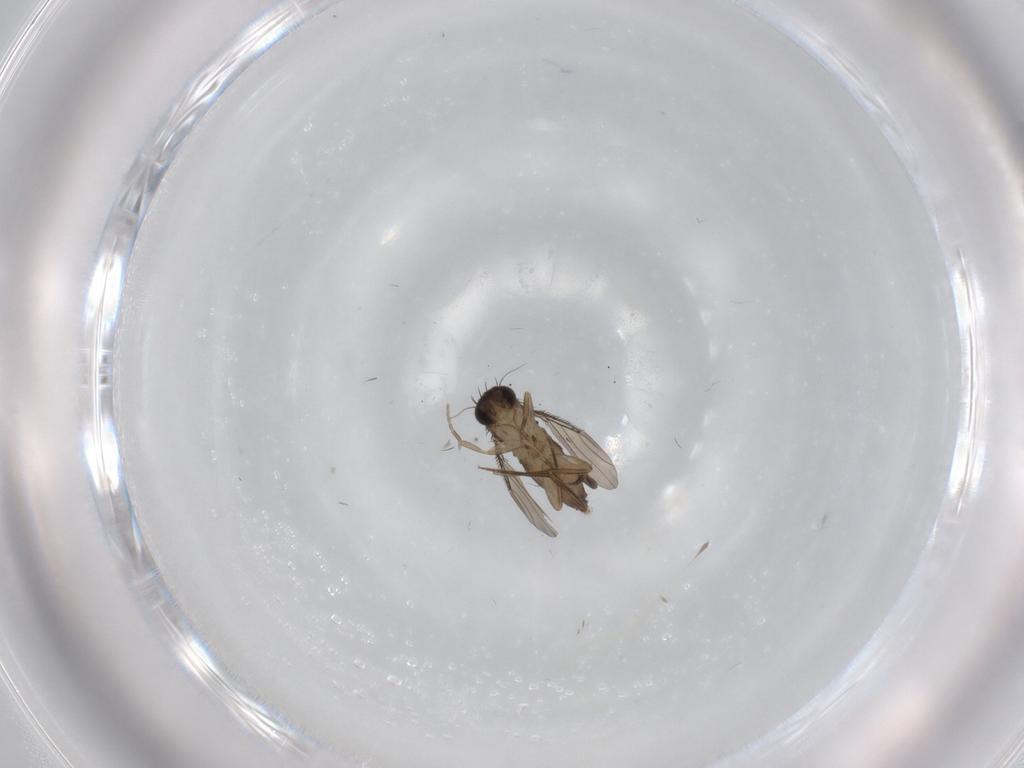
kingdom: Animalia
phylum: Arthropoda
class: Insecta
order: Diptera
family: Phoridae
